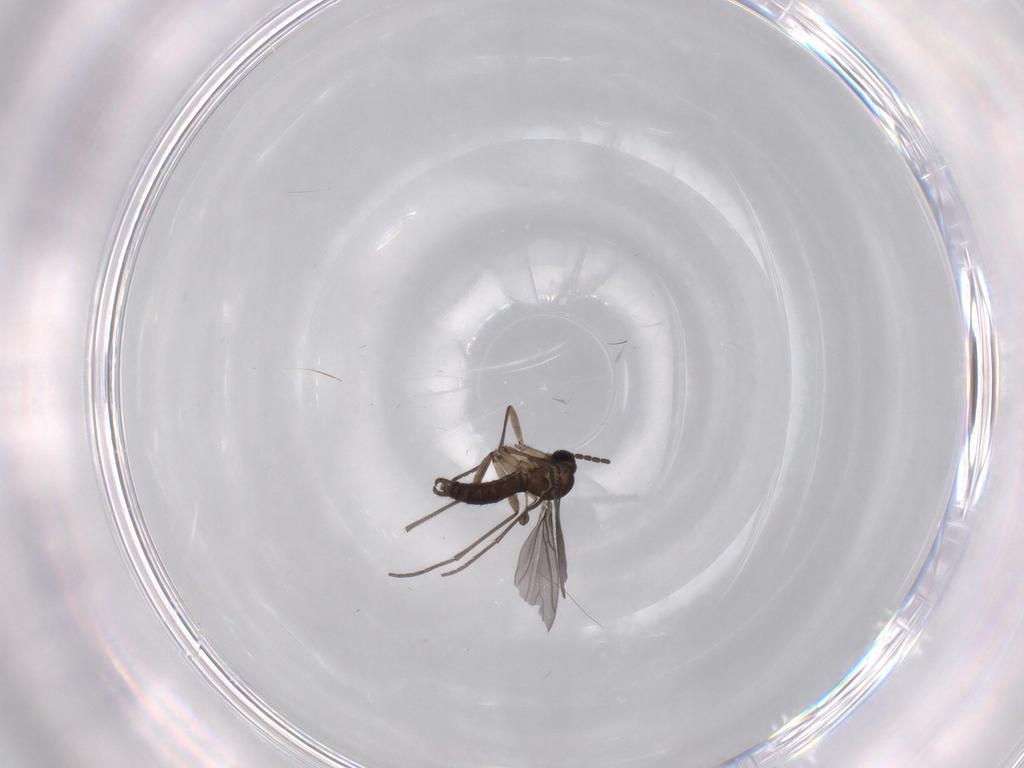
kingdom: Animalia
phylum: Arthropoda
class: Insecta
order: Diptera
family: Sciaridae
